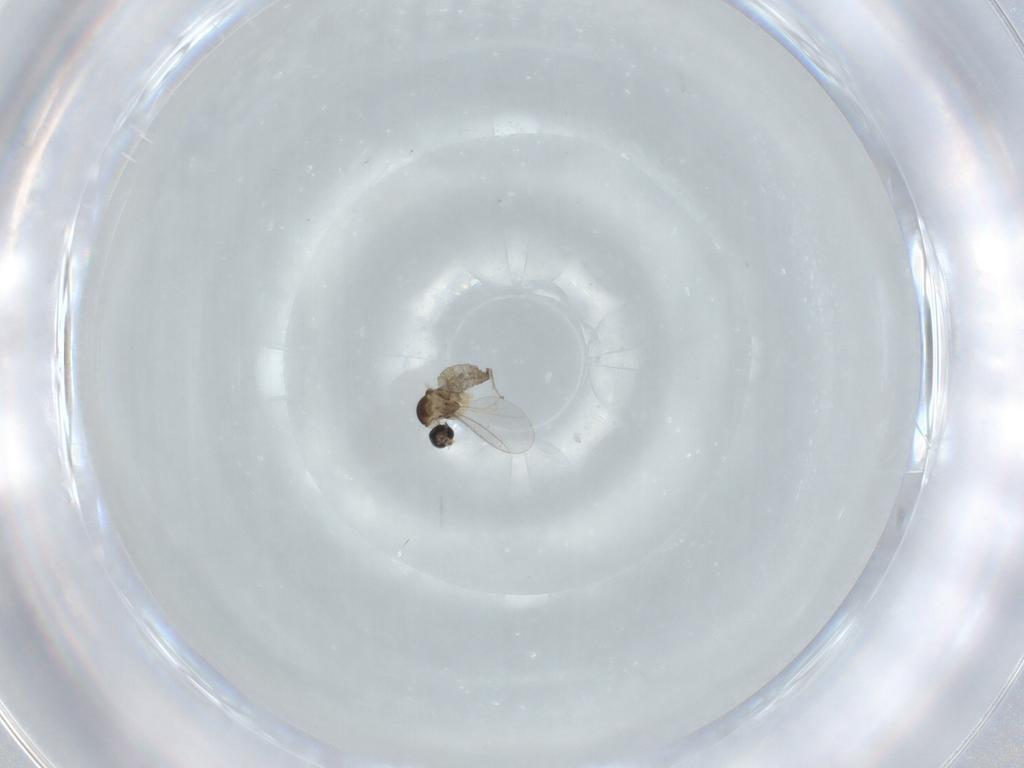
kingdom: Animalia
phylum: Arthropoda
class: Insecta
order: Diptera
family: Cecidomyiidae
